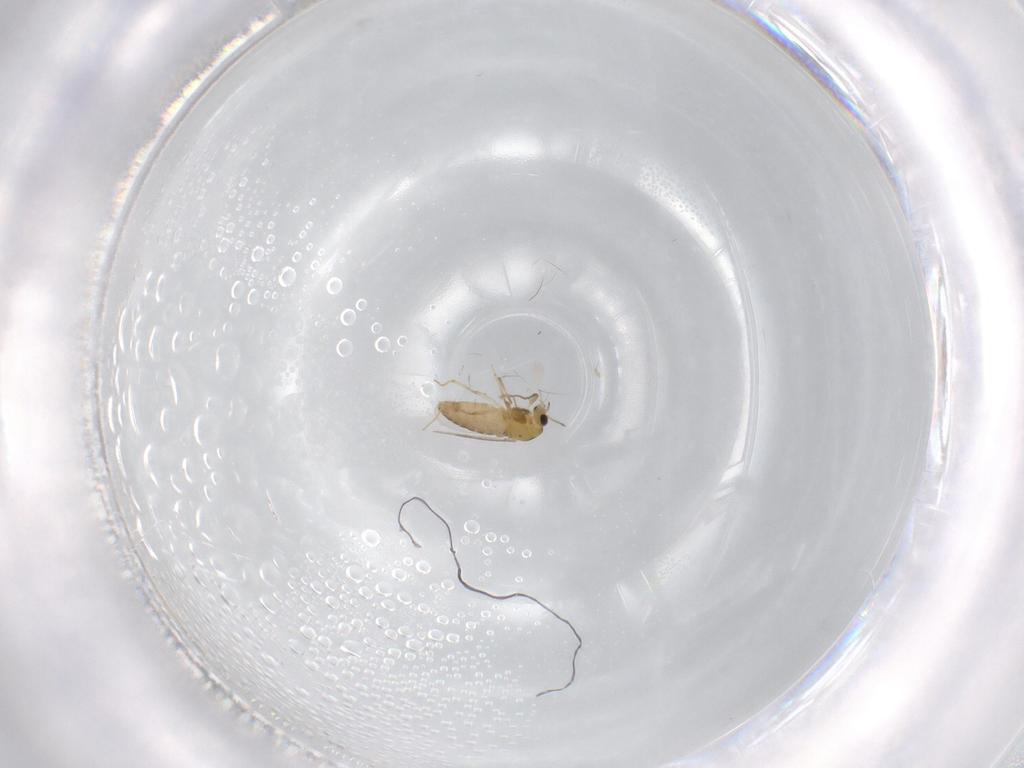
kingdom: Animalia
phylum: Arthropoda
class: Insecta
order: Diptera
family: Chironomidae
